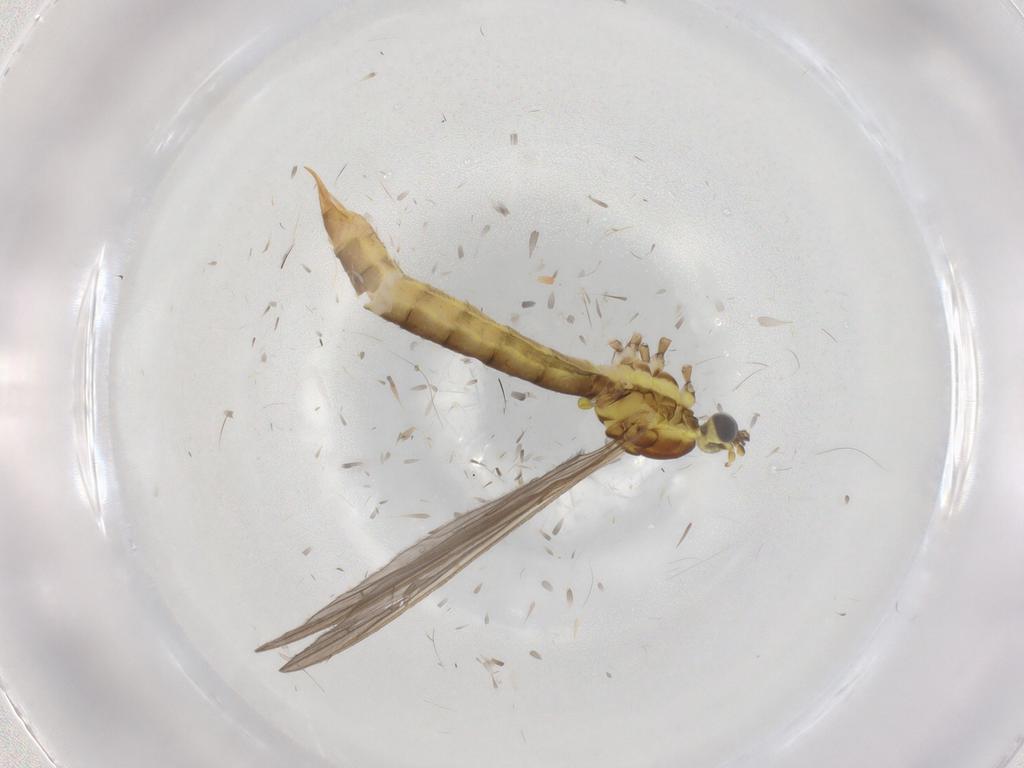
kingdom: Animalia
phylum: Arthropoda
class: Insecta
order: Diptera
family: Limoniidae
